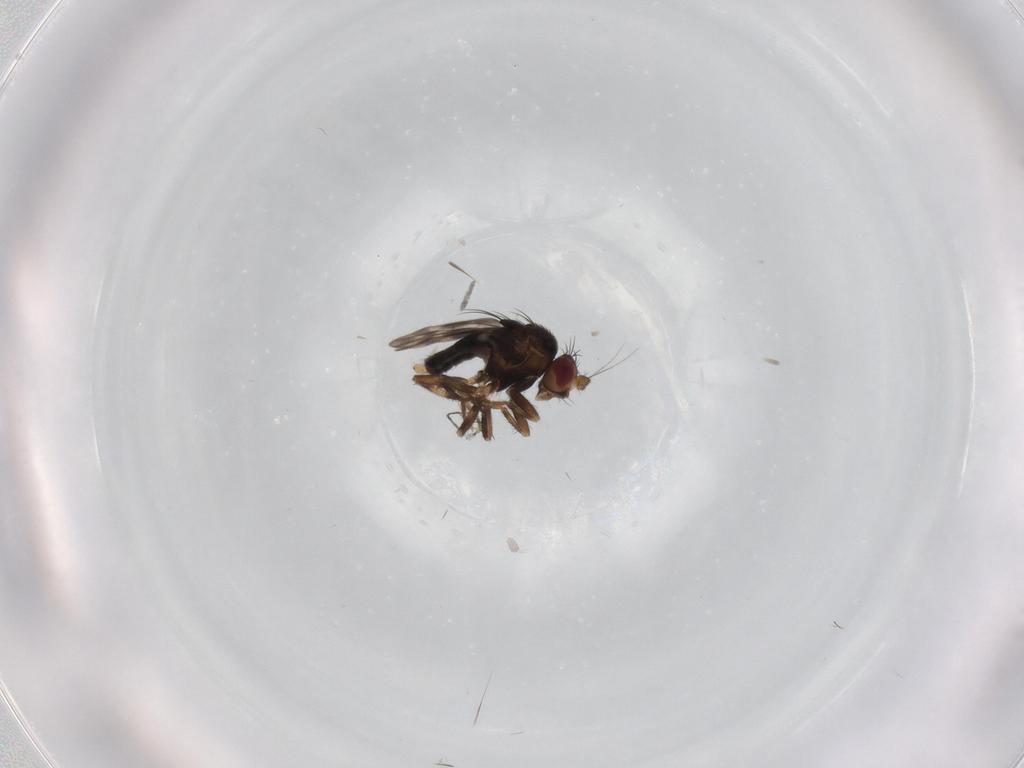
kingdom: Animalia
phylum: Arthropoda
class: Insecta
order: Diptera
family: Sphaeroceridae
